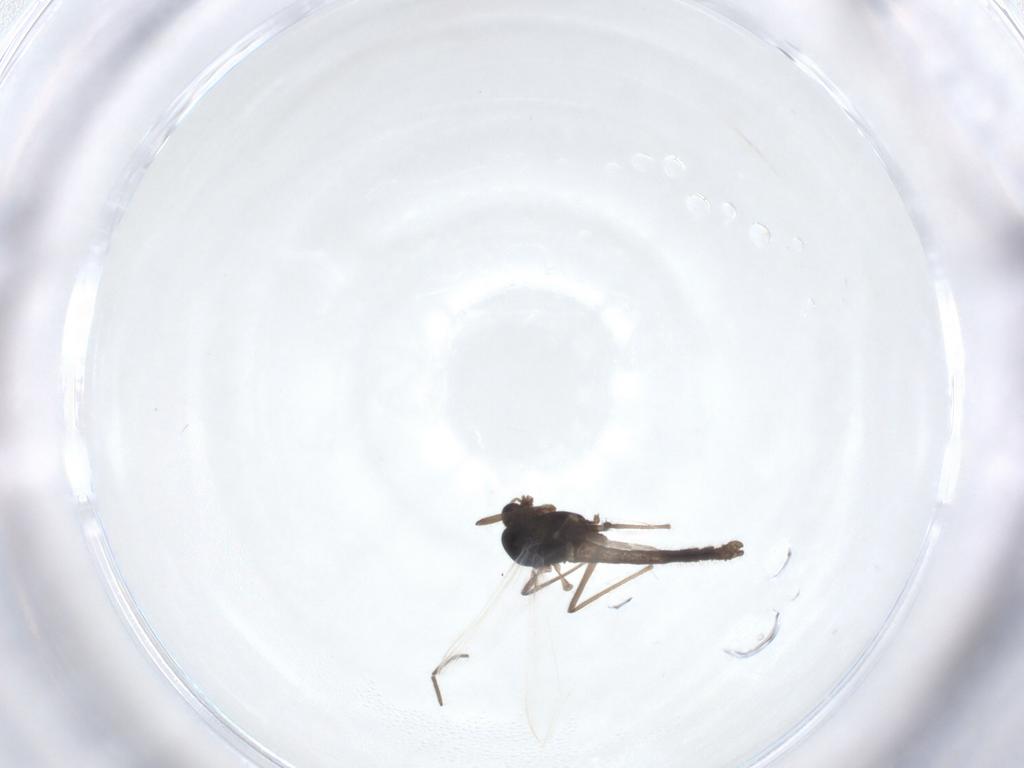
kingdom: Animalia
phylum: Arthropoda
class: Insecta
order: Diptera
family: Chironomidae
